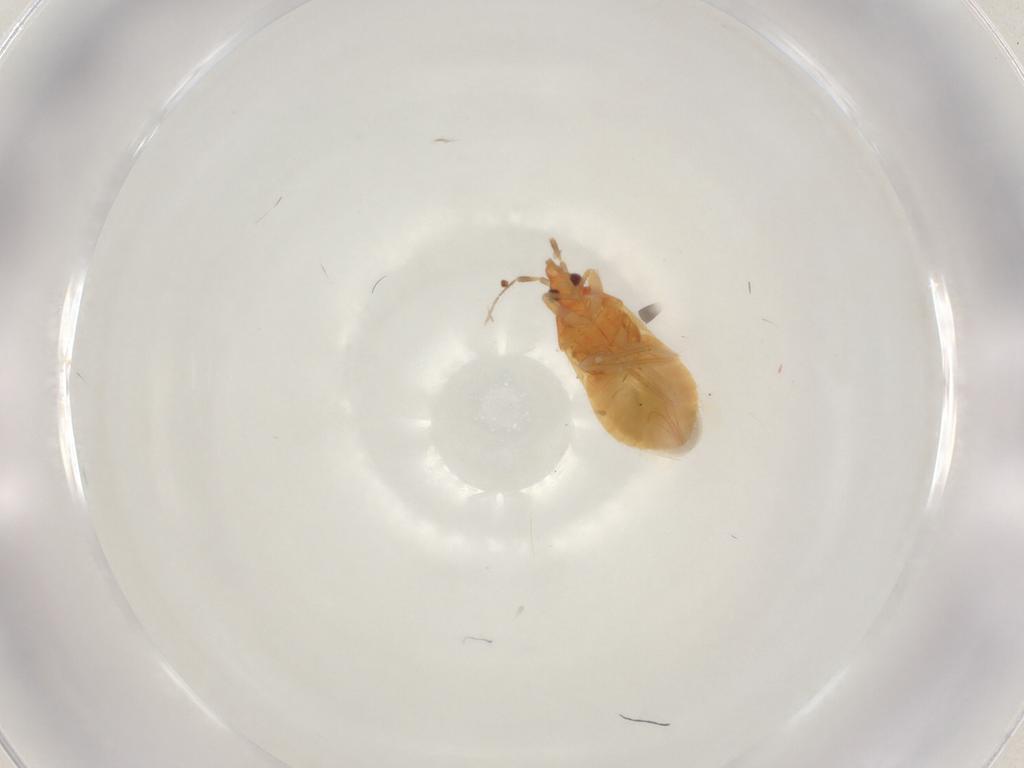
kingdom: Animalia
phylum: Arthropoda
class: Insecta
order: Hemiptera
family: Lasiochilidae
